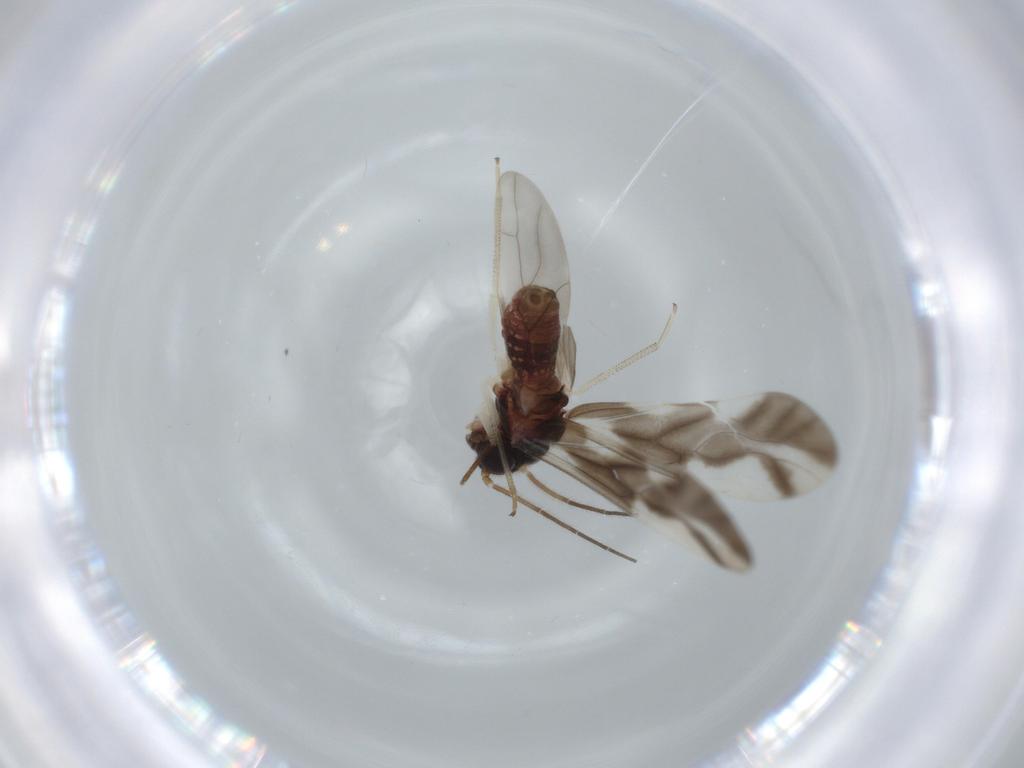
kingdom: Animalia
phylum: Arthropoda
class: Insecta
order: Diptera
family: Phoridae
